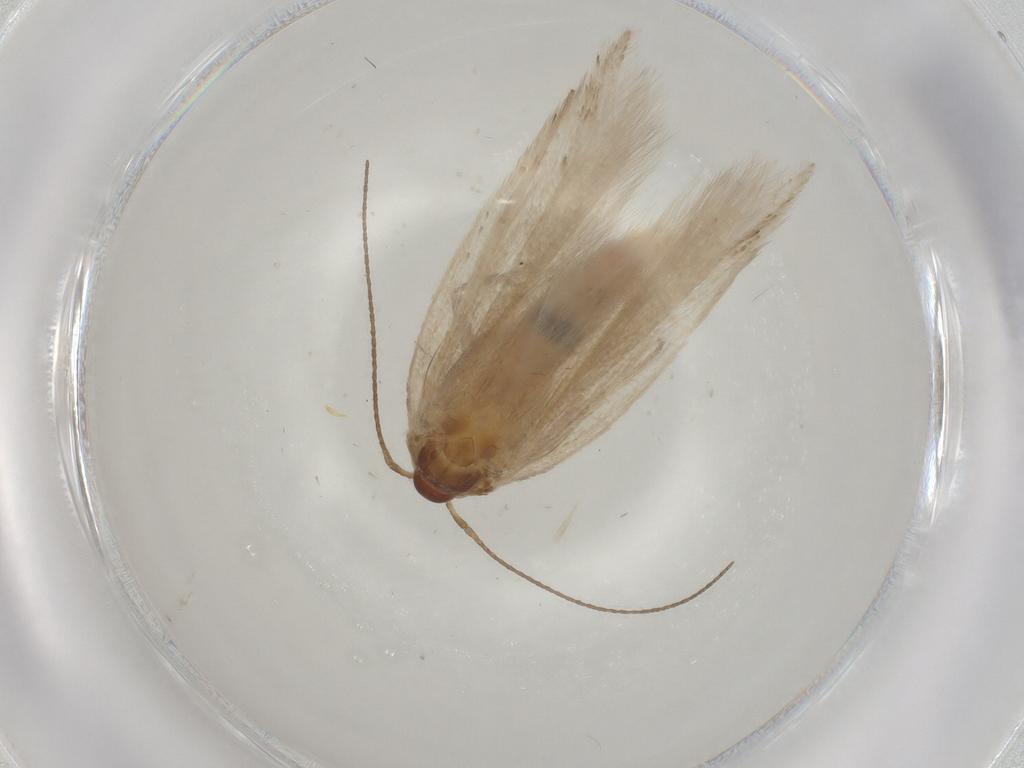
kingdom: Animalia
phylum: Arthropoda
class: Insecta
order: Lepidoptera
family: Gelechiidae
